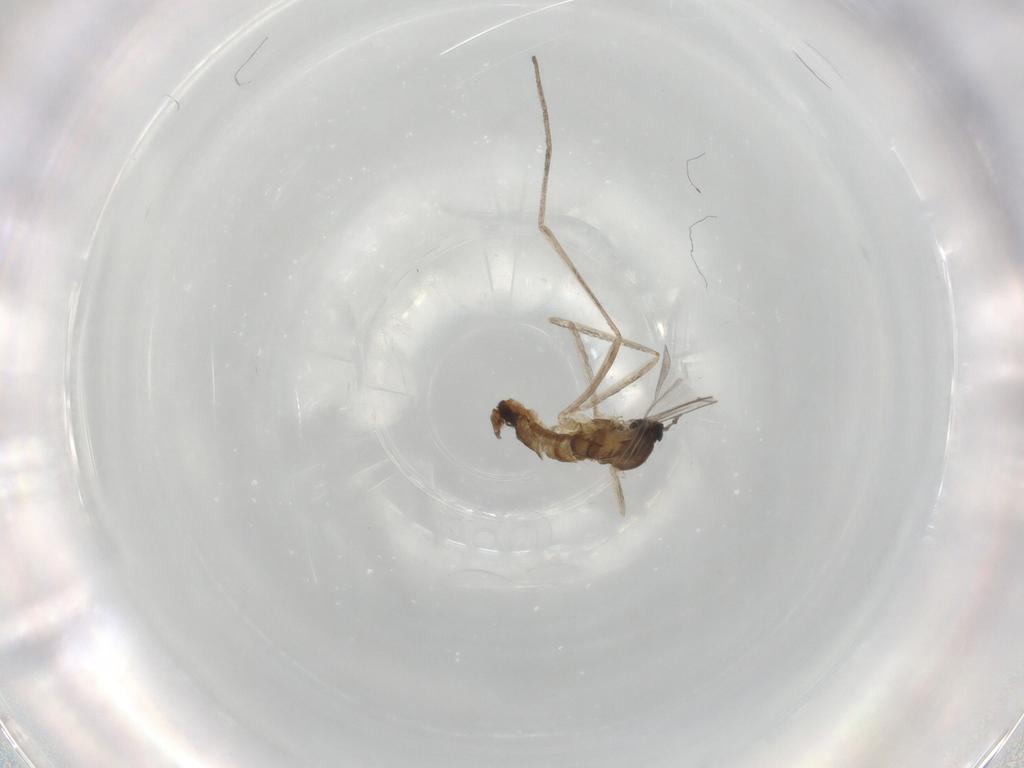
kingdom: Animalia
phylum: Arthropoda
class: Insecta
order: Diptera
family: Cecidomyiidae
